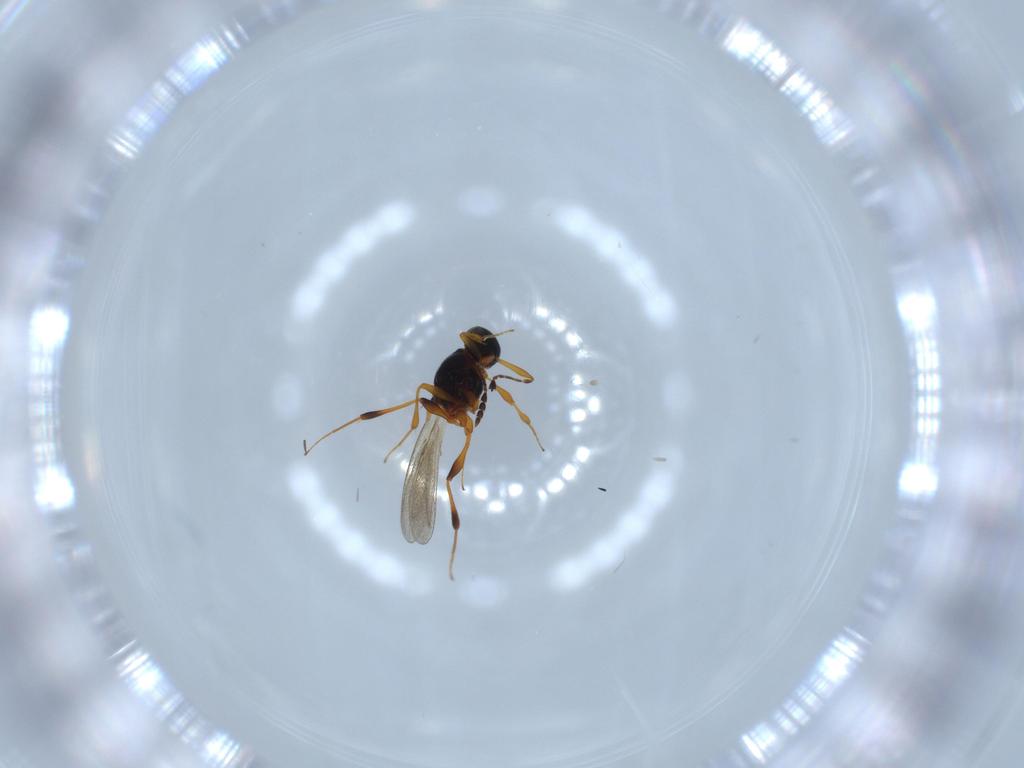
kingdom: Animalia
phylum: Arthropoda
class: Insecta
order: Hymenoptera
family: Platygastridae
